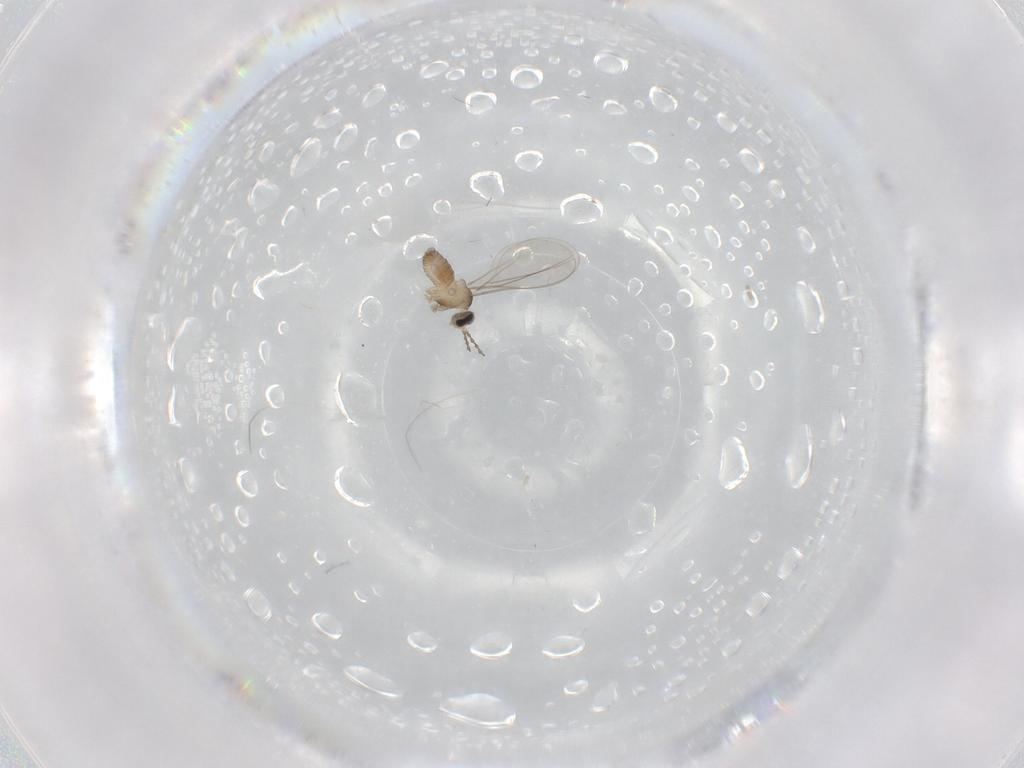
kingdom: Animalia
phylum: Arthropoda
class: Insecta
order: Diptera
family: Cecidomyiidae
